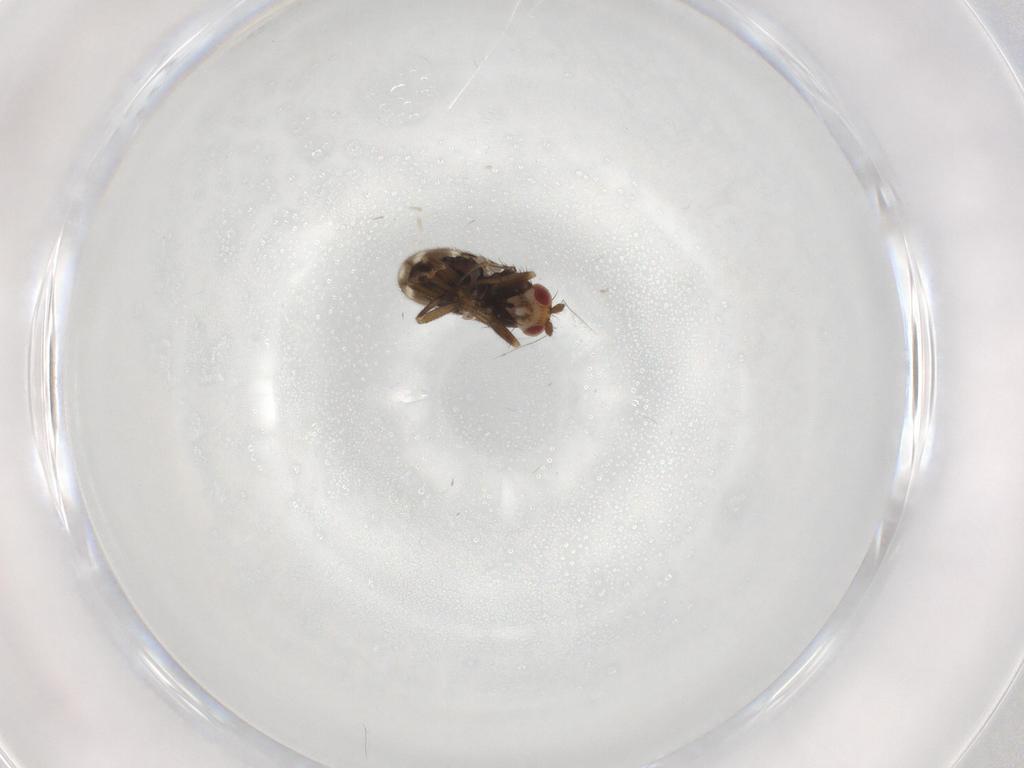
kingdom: Animalia
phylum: Arthropoda
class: Insecta
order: Diptera
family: Sphaeroceridae
